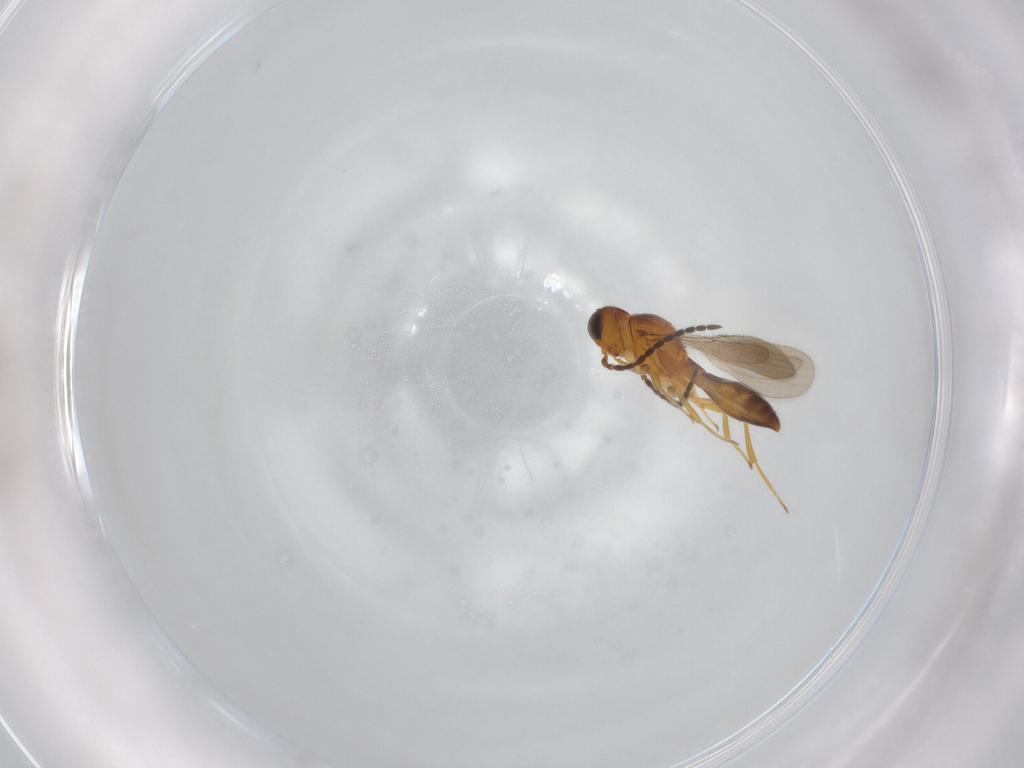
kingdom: Animalia
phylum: Arthropoda
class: Insecta
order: Hymenoptera
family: Scelionidae
